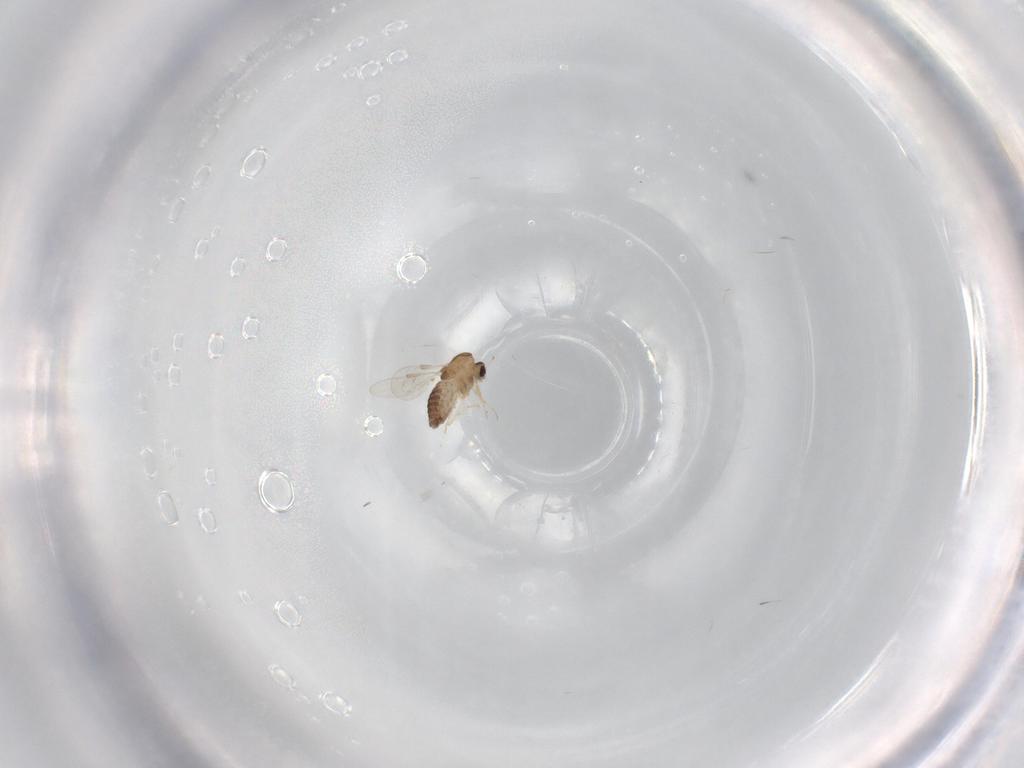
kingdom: Animalia
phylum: Arthropoda
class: Insecta
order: Diptera
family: Chironomidae
